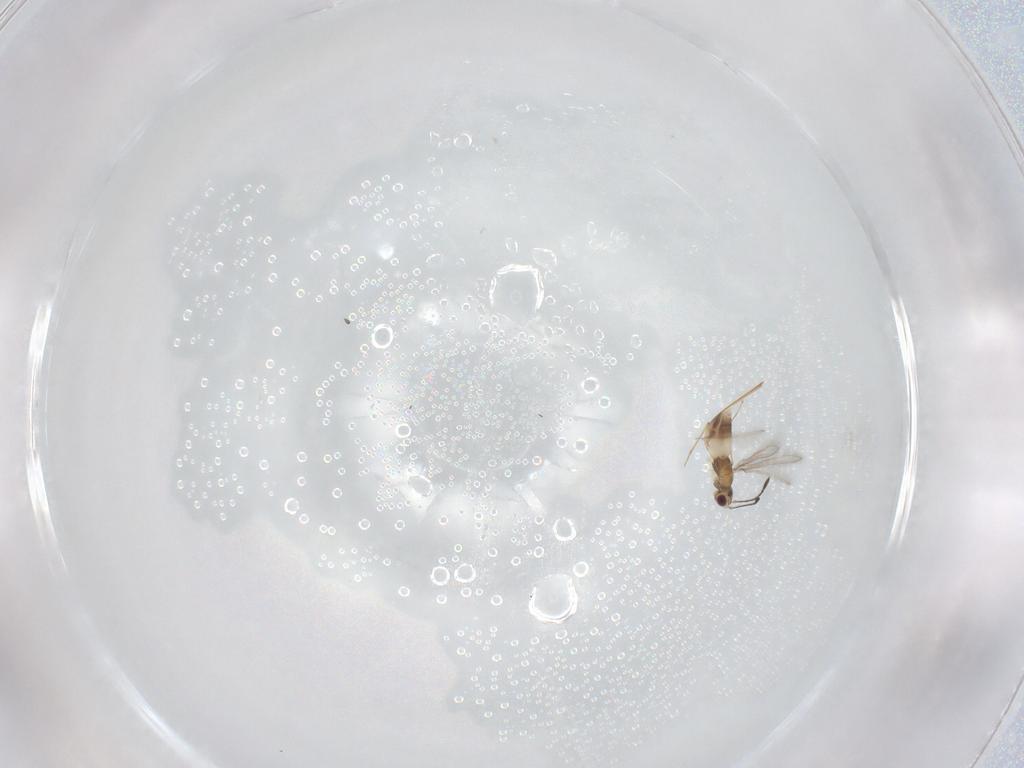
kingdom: Animalia
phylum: Arthropoda
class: Insecta
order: Hymenoptera
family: Mymaridae
